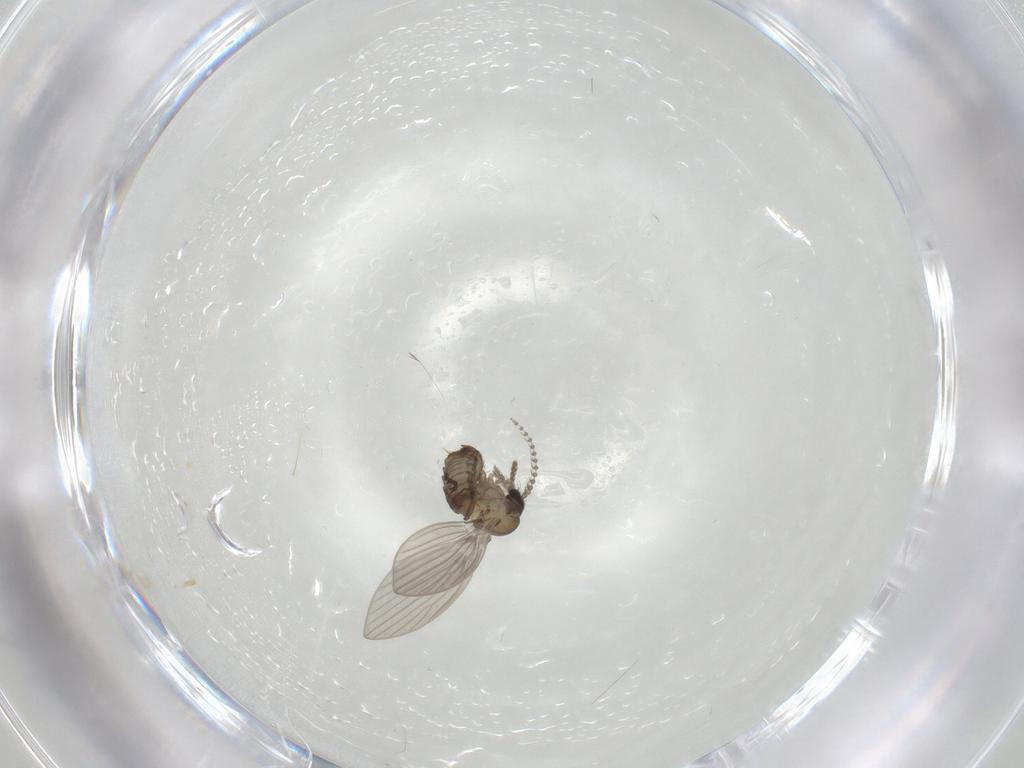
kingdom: Animalia
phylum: Arthropoda
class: Insecta
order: Diptera
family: Psychodidae
